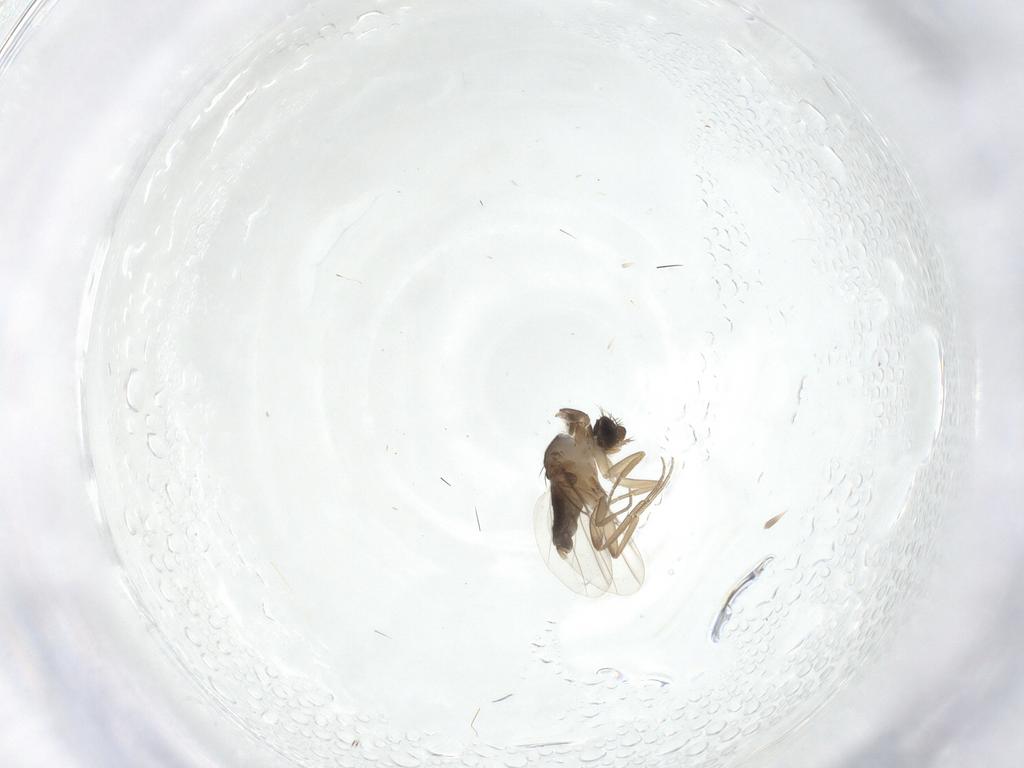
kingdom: Animalia
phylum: Arthropoda
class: Insecta
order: Diptera
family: Phoridae
